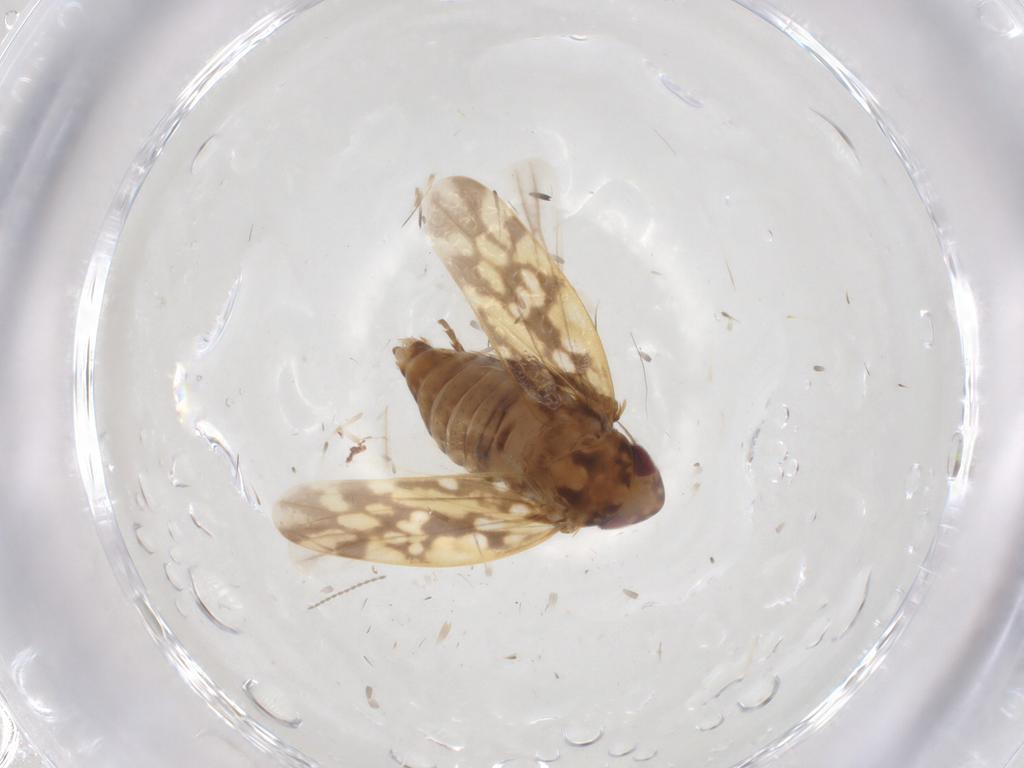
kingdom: Animalia
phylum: Arthropoda
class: Insecta
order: Hemiptera
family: Cicadellidae
